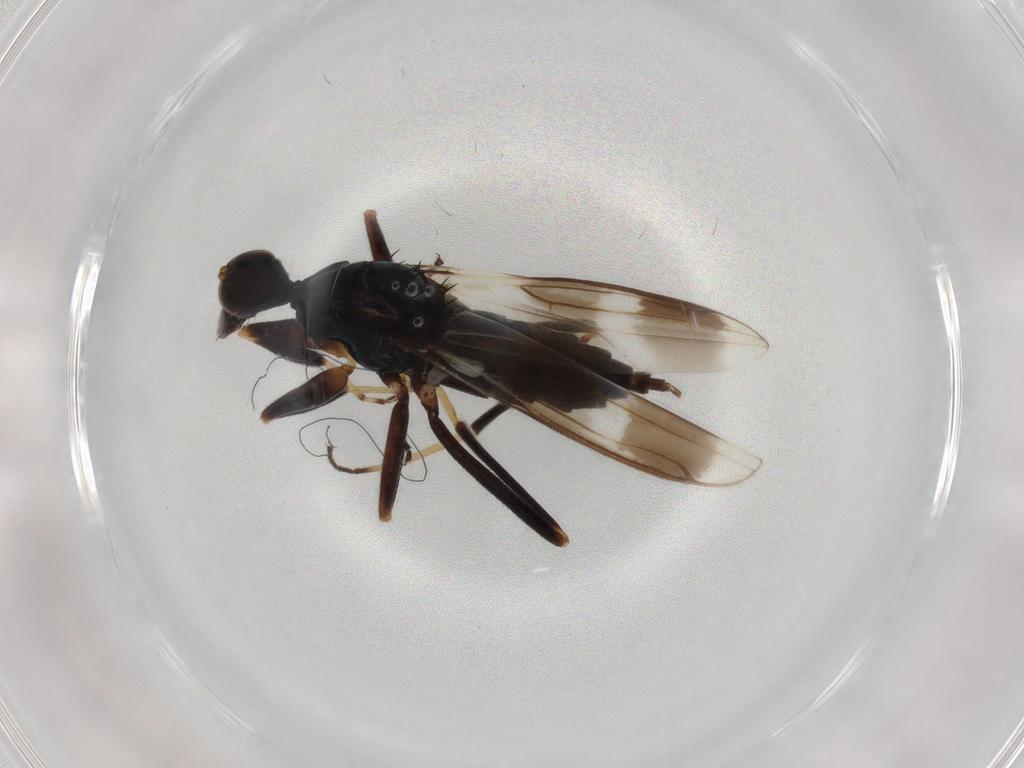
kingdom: Animalia
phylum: Arthropoda
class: Insecta
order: Diptera
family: Hybotidae
